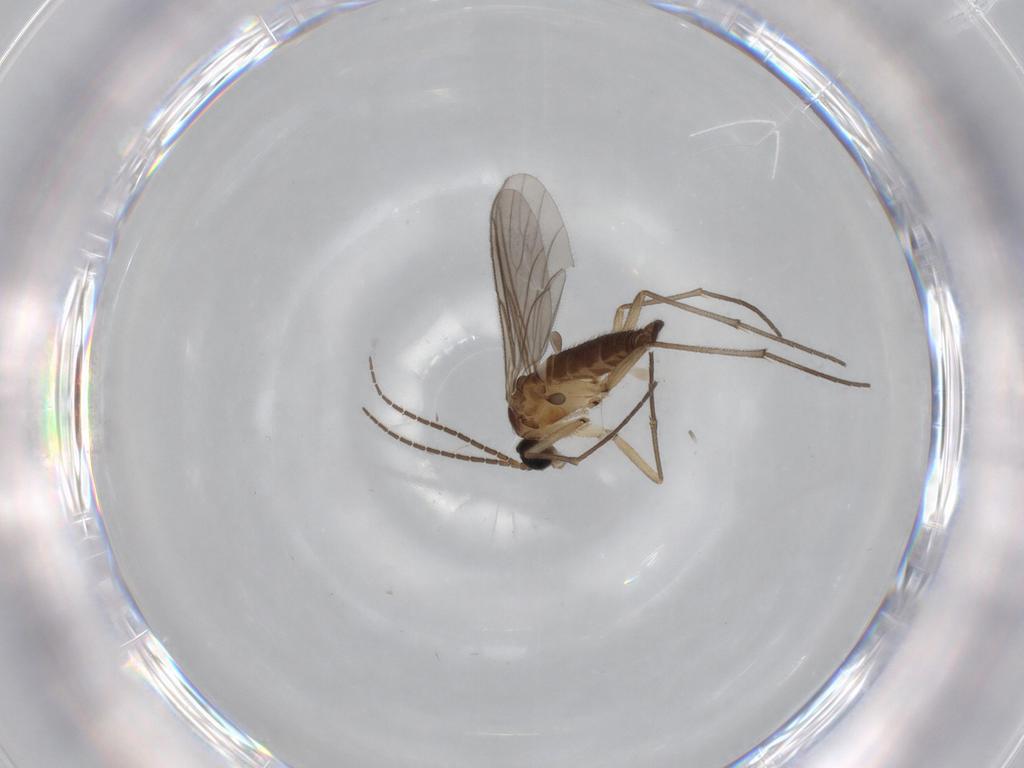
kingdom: Animalia
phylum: Arthropoda
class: Insecta
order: Diptera
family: Sciaridae
